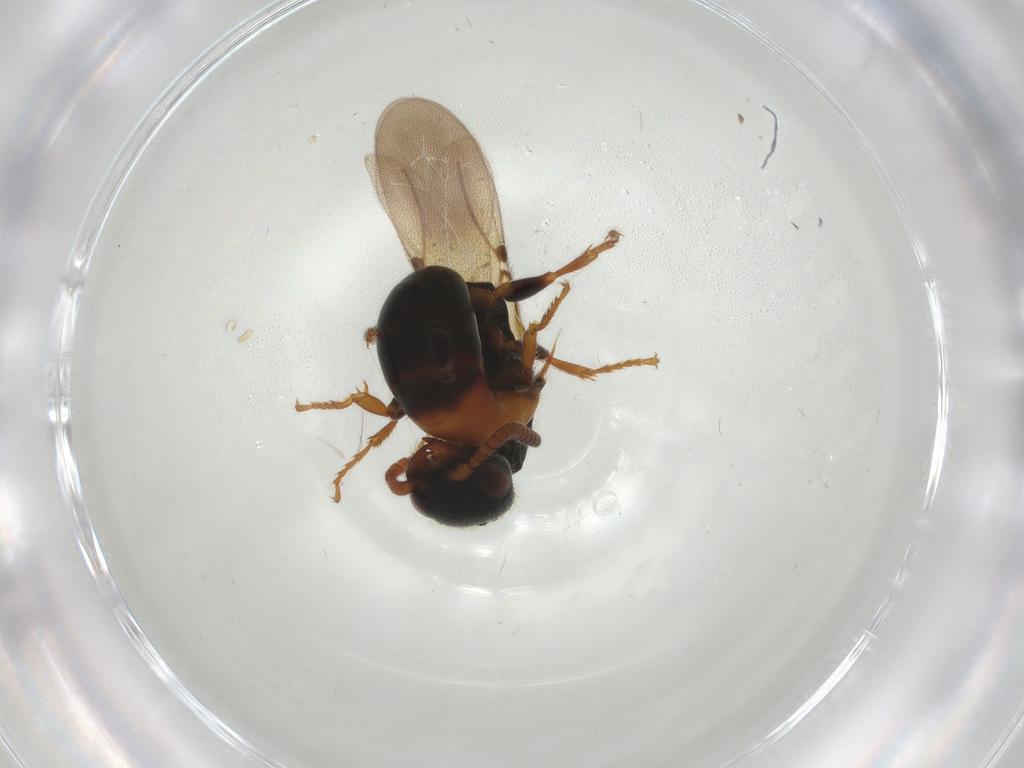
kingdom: Animalia
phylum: Arthropoda
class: Insecta
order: Hymenoptera
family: Bethylidae
